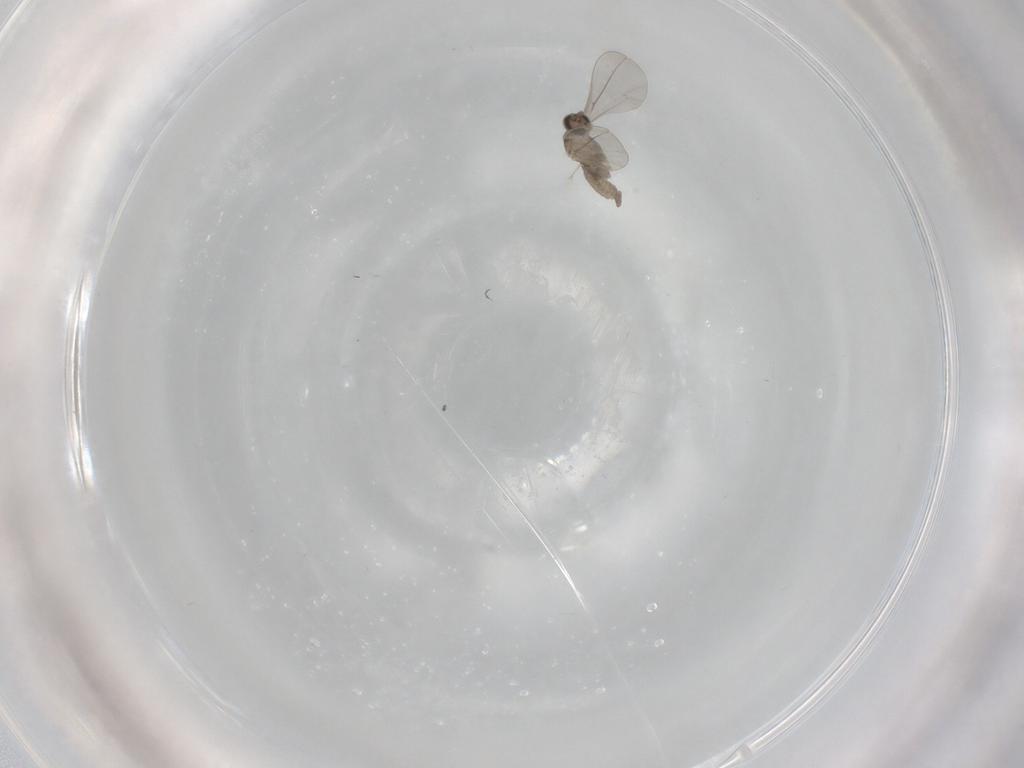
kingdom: Animalia
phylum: Arthropoda
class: Insecta
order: Diptera
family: Cecidomyiidae
